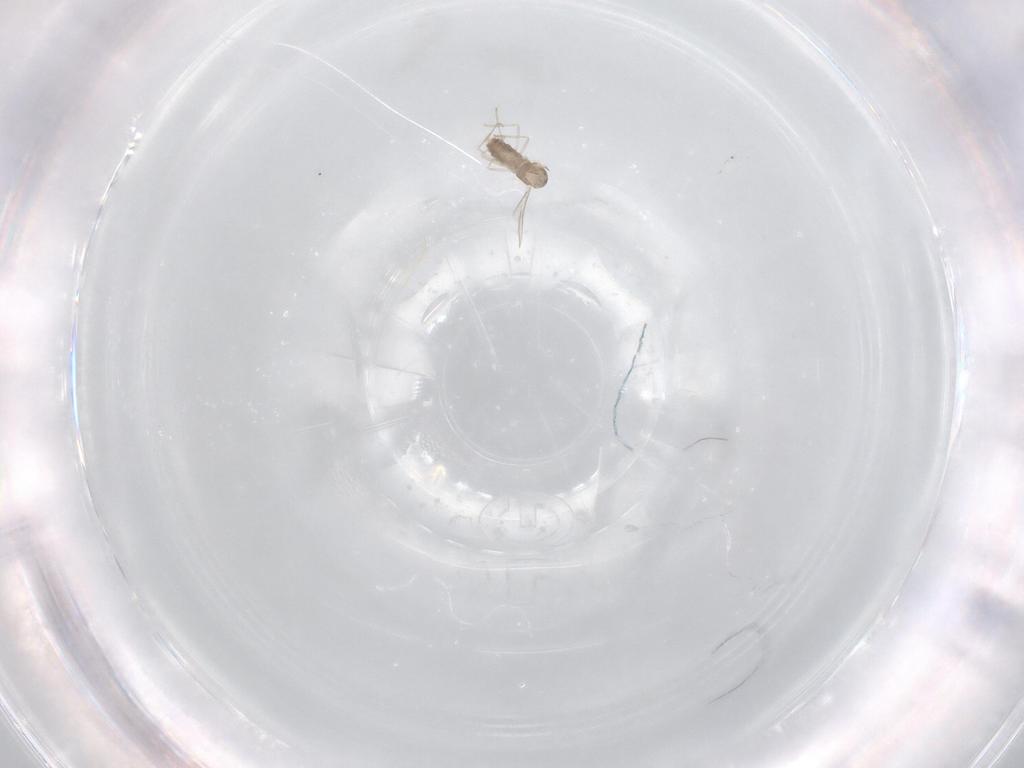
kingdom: Animalia
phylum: Arthropoda
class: Insecta
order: Diptera
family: Cecidomyiidae
